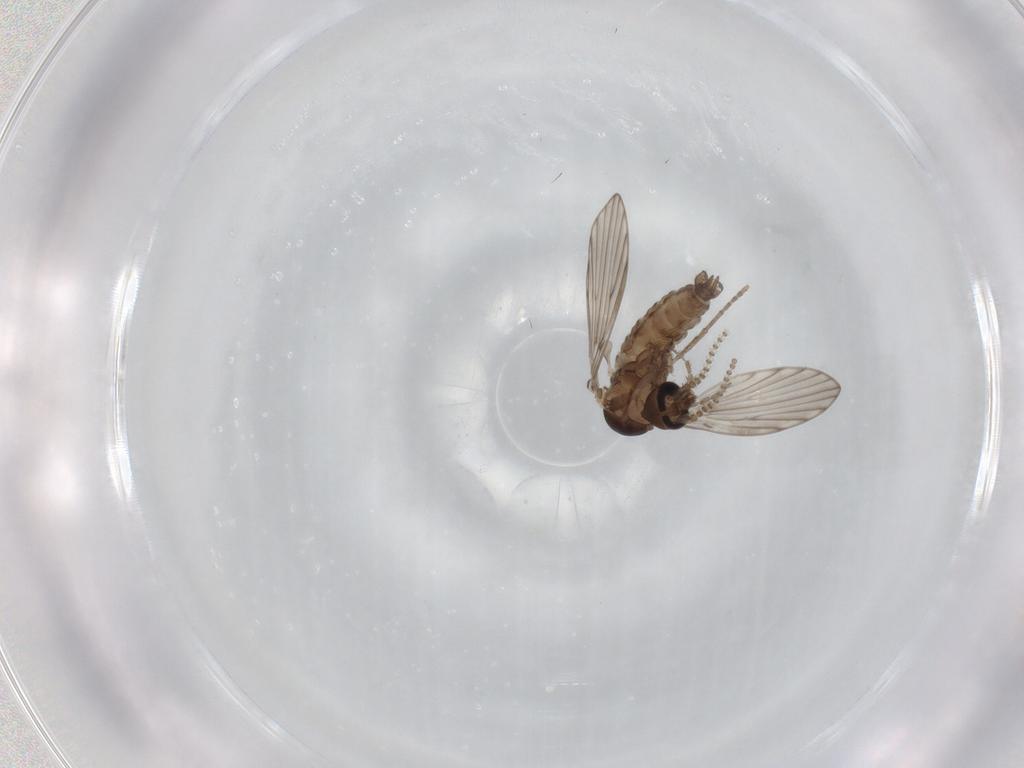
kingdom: Animalia
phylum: Arthropoda
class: Insecta
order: Diptera
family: Psychodidae
